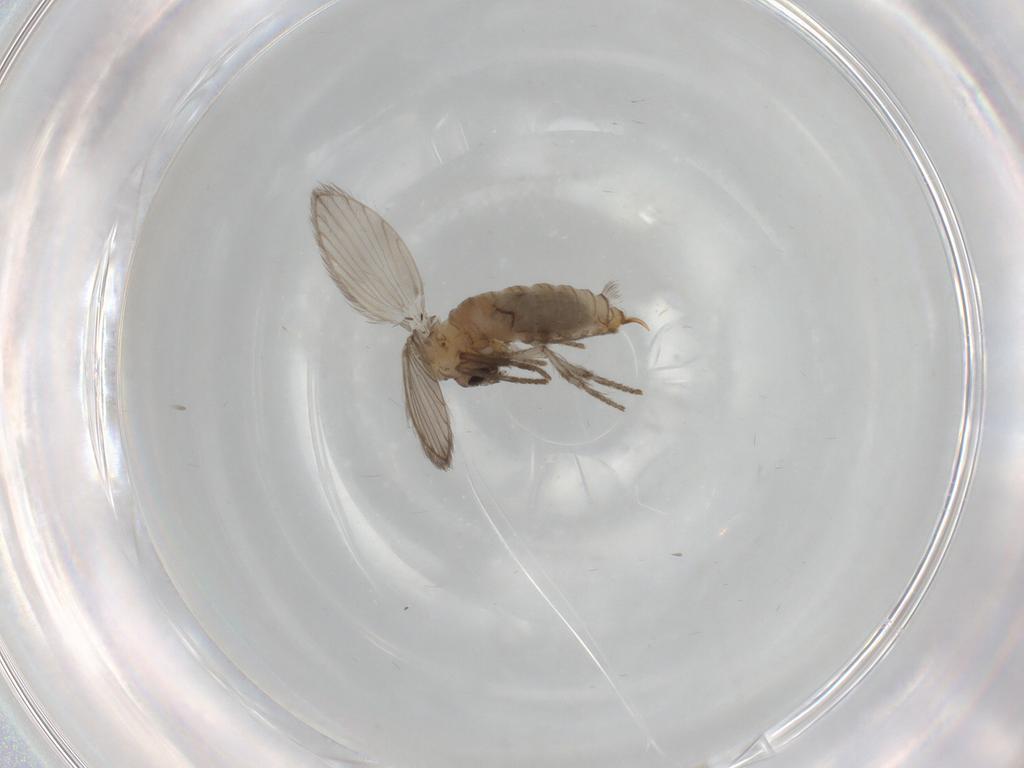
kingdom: Animalia
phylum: Arthropoda
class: Insecta
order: Diptera
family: Psychodidae
